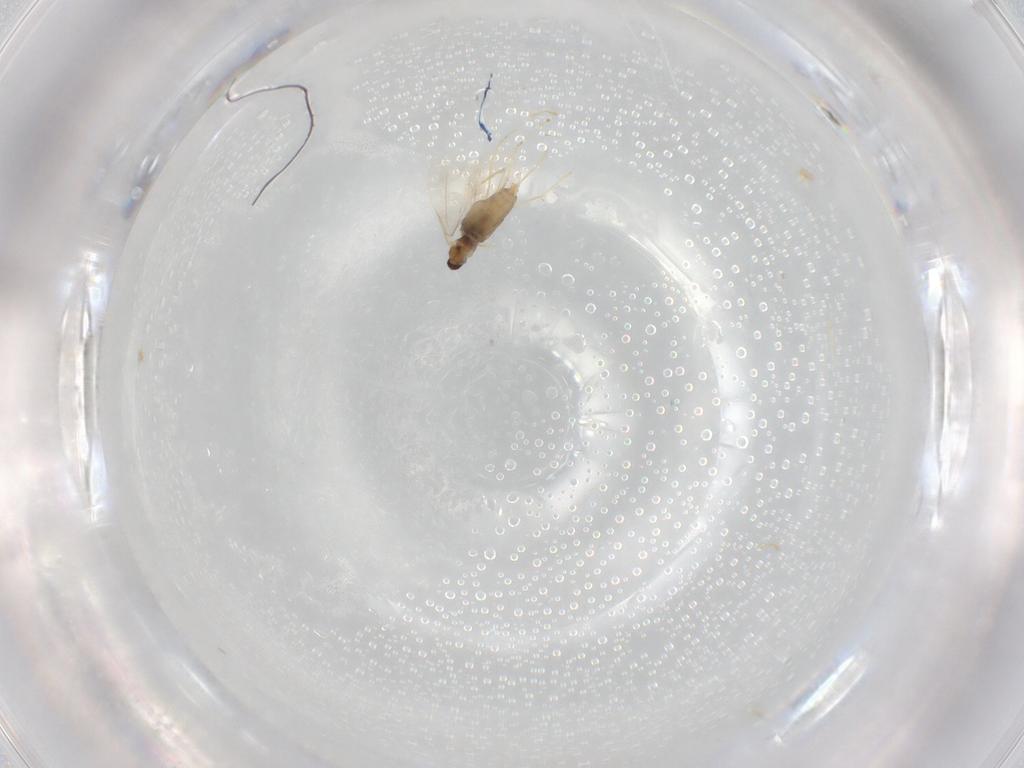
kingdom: Animalia
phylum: Arthropoda
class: Insecta
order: Diptera
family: Cecidomyiidae
